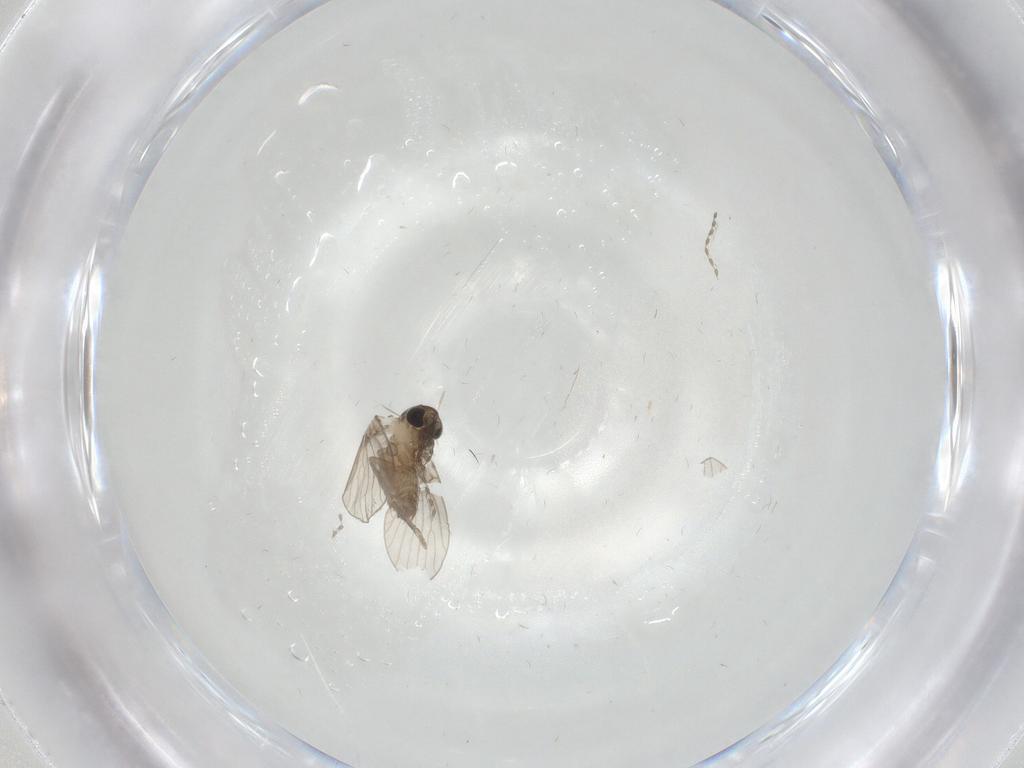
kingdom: Animalia
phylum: Arthropoda
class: Insecta
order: Diptera
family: Psychodidae
